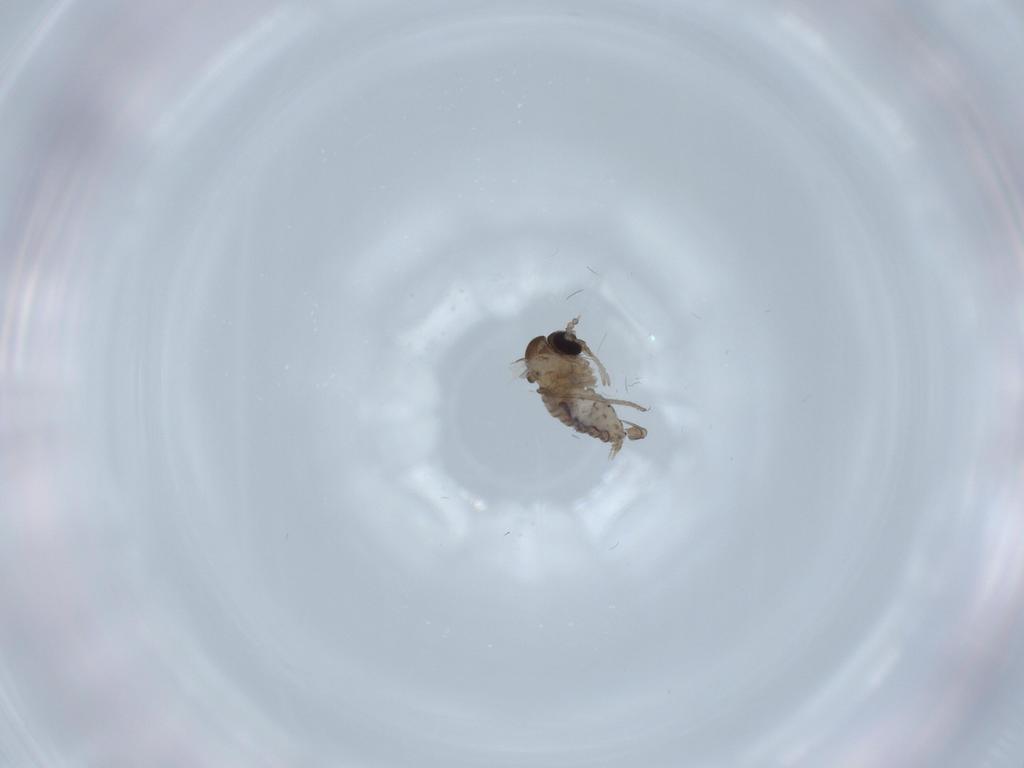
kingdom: Animalia
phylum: Arthropoda
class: Insecta
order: Diptera
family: Psychodidae
